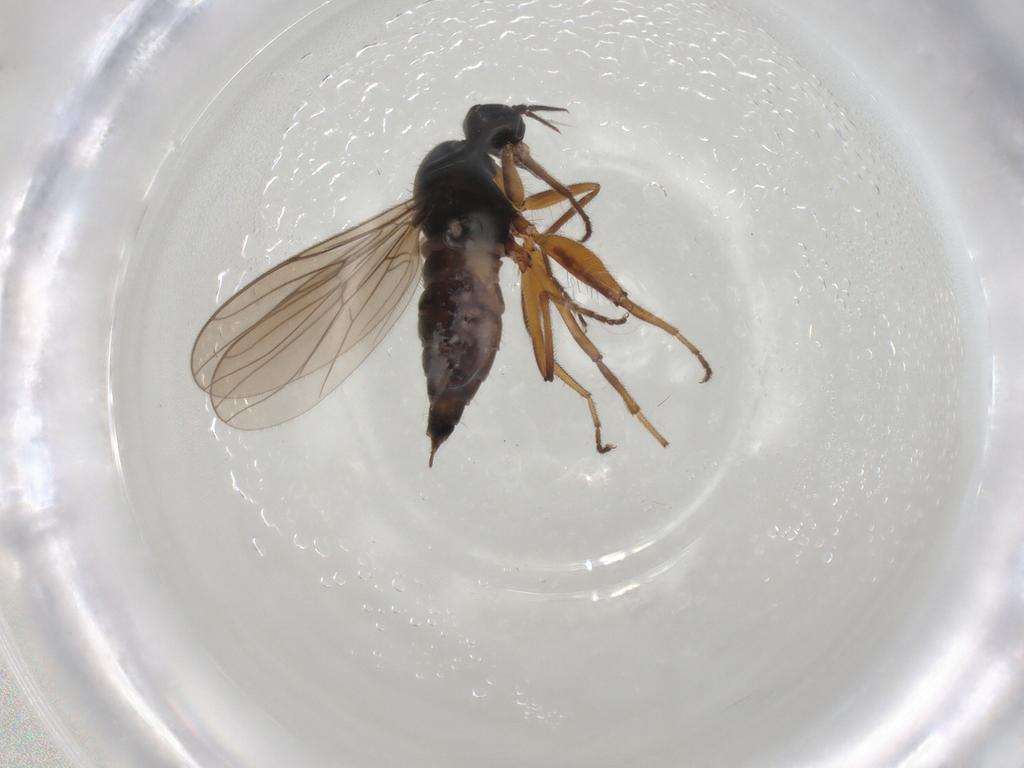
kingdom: Animalia
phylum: Arthropoda
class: Insecta
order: Diptera
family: Hybotidae
